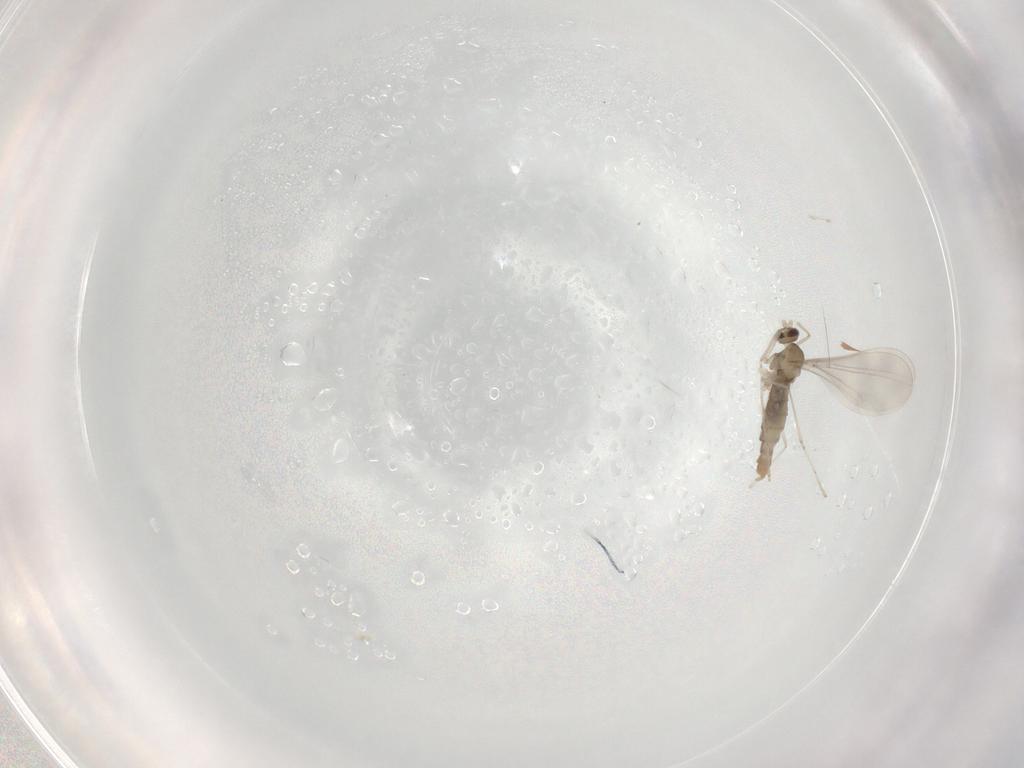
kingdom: Animalia
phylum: Arthropoda
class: Insecta
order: Diptera
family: Cecidomyiidae
